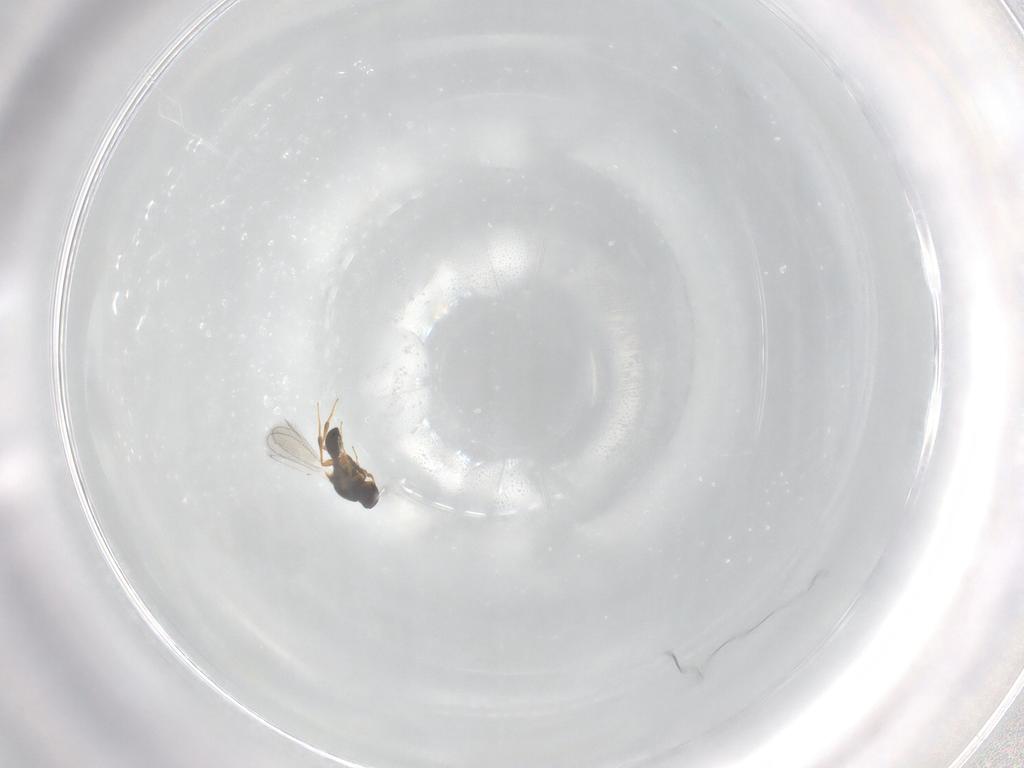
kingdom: Animalia
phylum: Arthropoda
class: Insecta
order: Hymenoptera
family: Platygastridae
